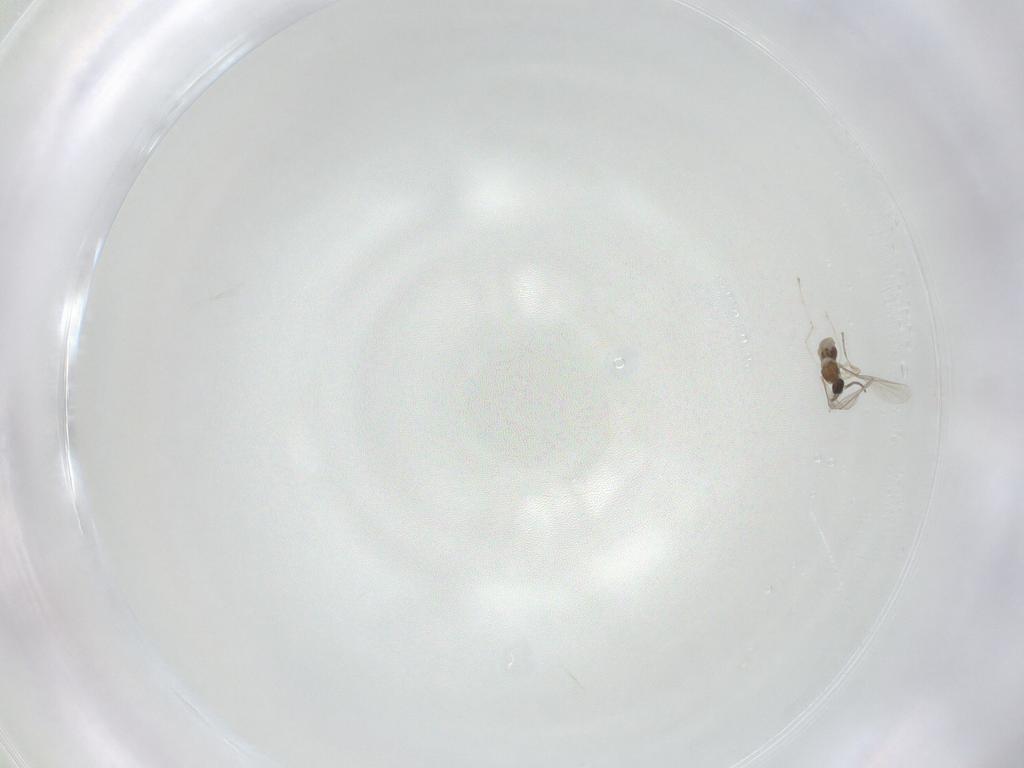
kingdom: Animalia
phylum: Arthropoda
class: Insecta
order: Diptera
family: Cecidomyiidae
